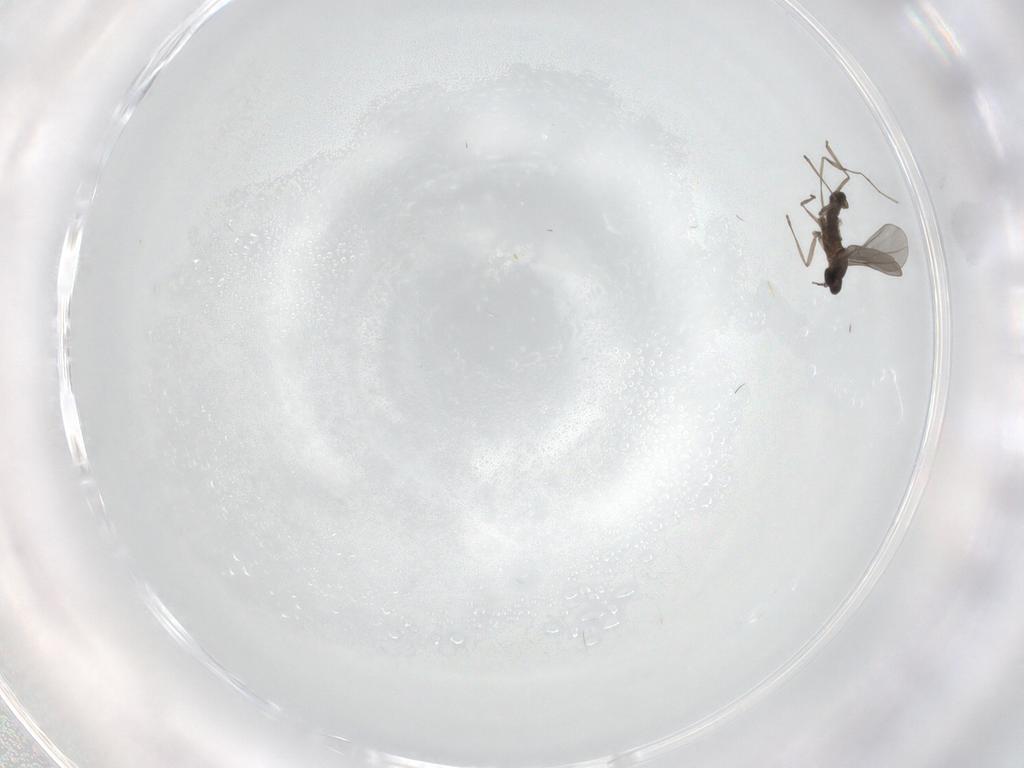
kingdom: Animalia
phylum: Arthropoda
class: Insecta
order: Diptera
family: Cecidomyiidae
